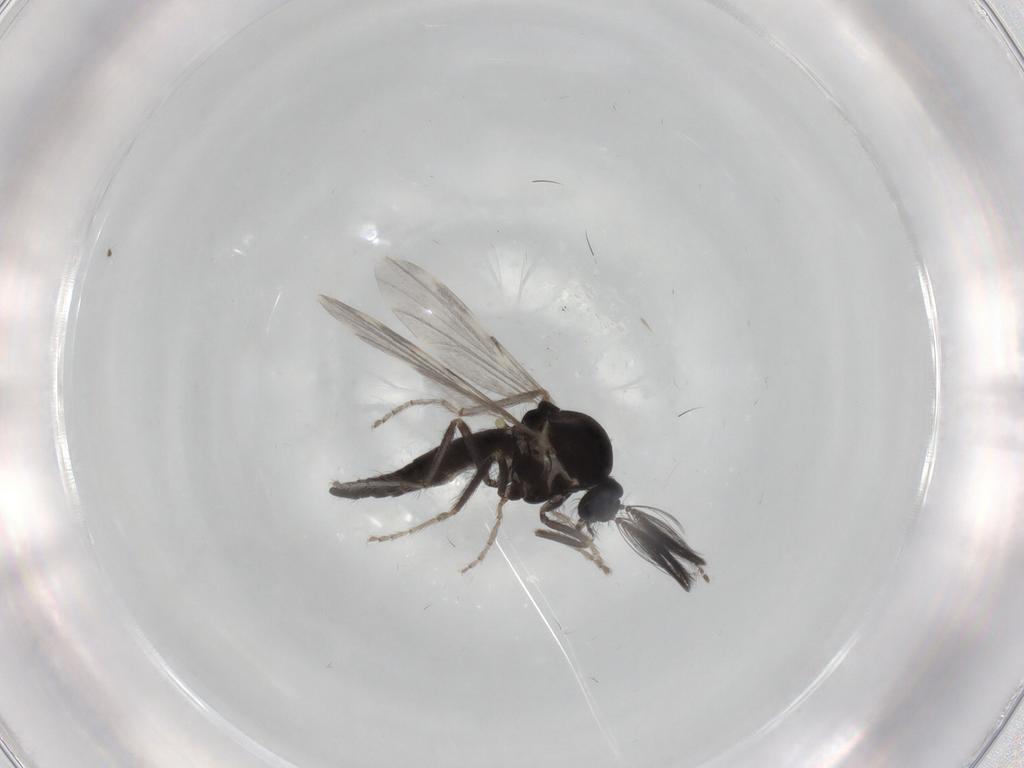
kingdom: Animalia
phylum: Arthropoda
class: Insecta
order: Diptera
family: Ceratopogonidae
